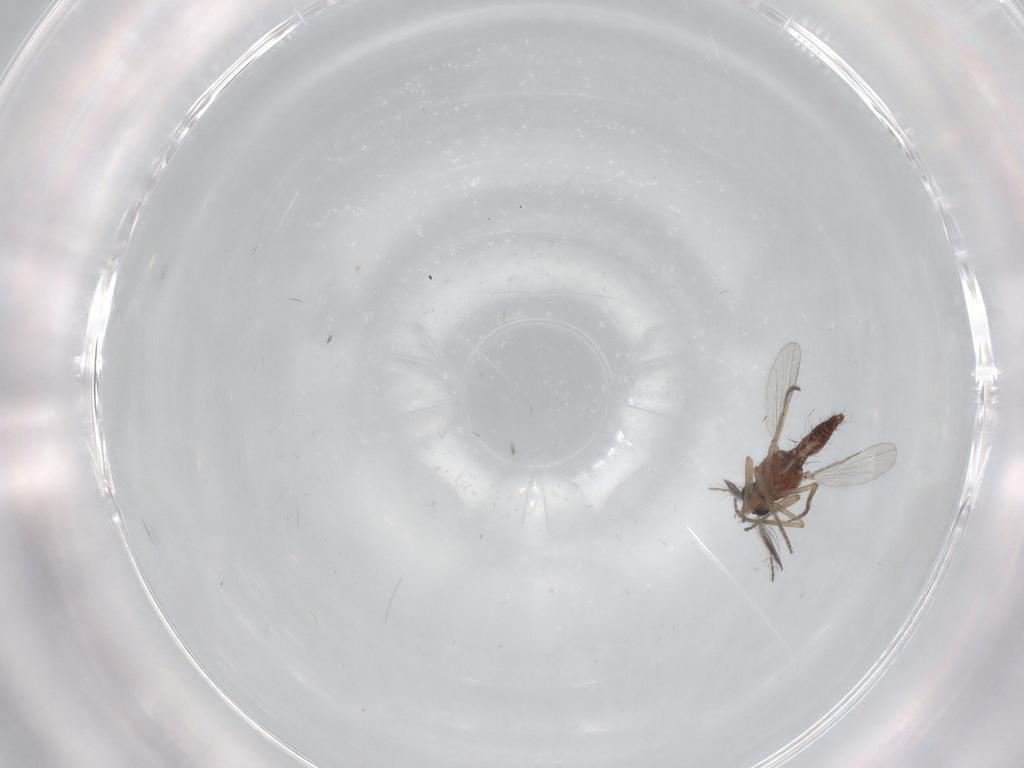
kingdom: Animalia
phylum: Arthropoda
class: Insecta
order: Diptera
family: Ceratopogonidae
